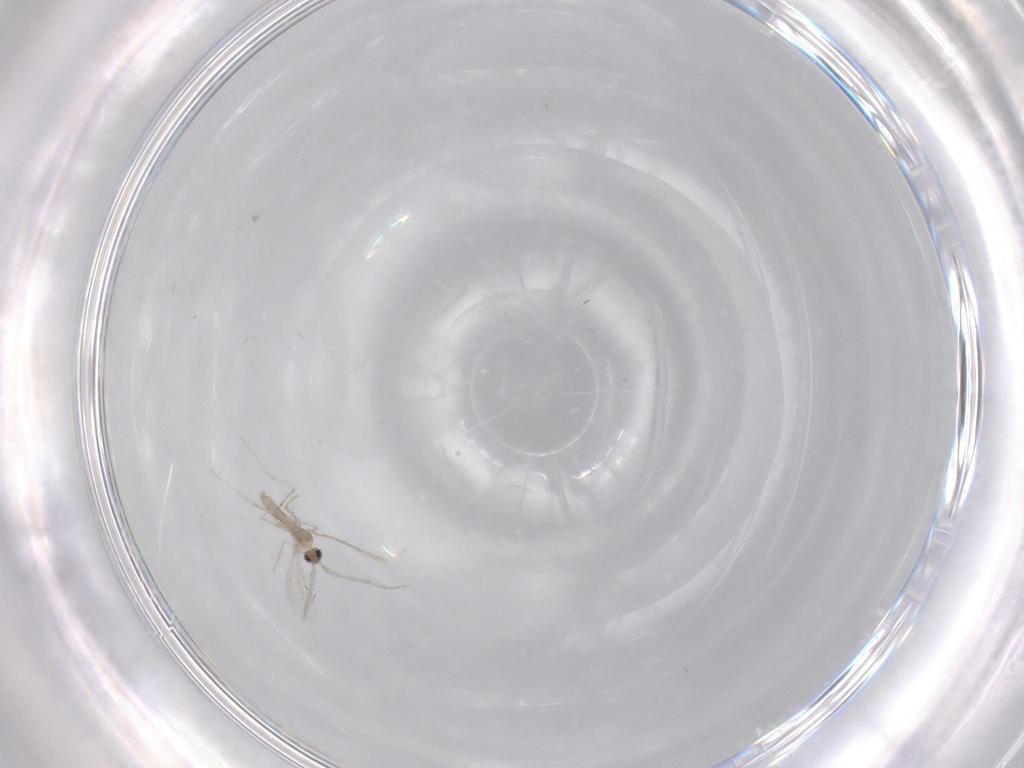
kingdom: Animalia
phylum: Arthropoda
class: Insecta
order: Diptera
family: Cecidomyiidae
